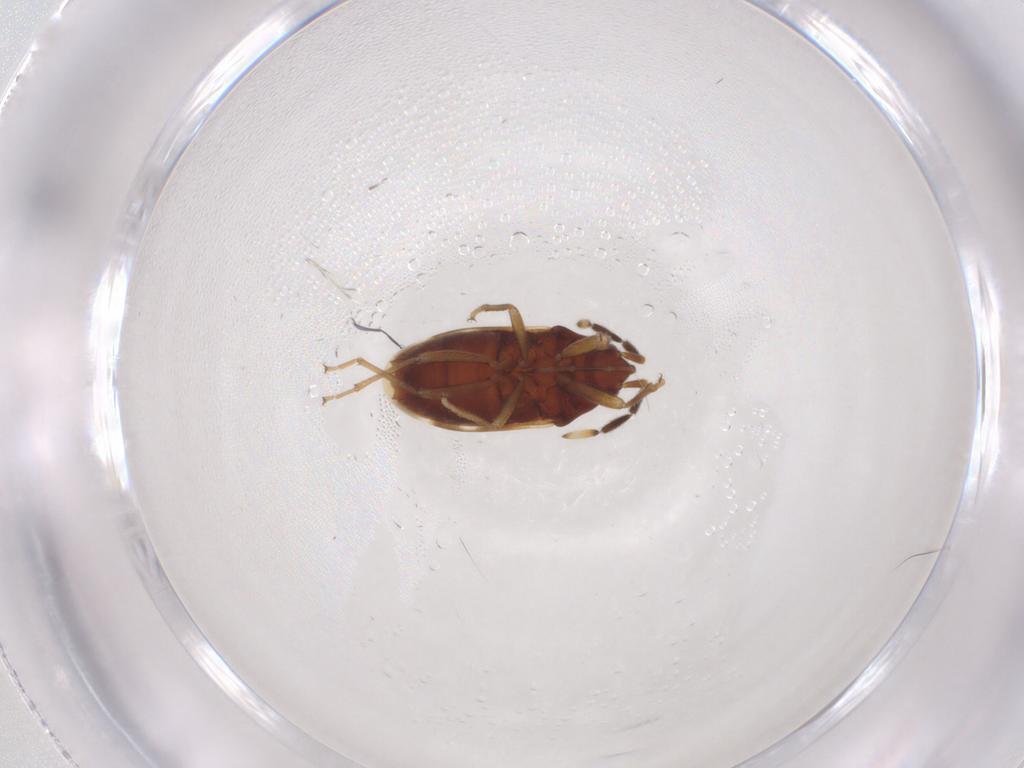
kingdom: Animalia
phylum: Arthropoda
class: Insecta
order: Hemiptera
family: Rhyparochromidae
